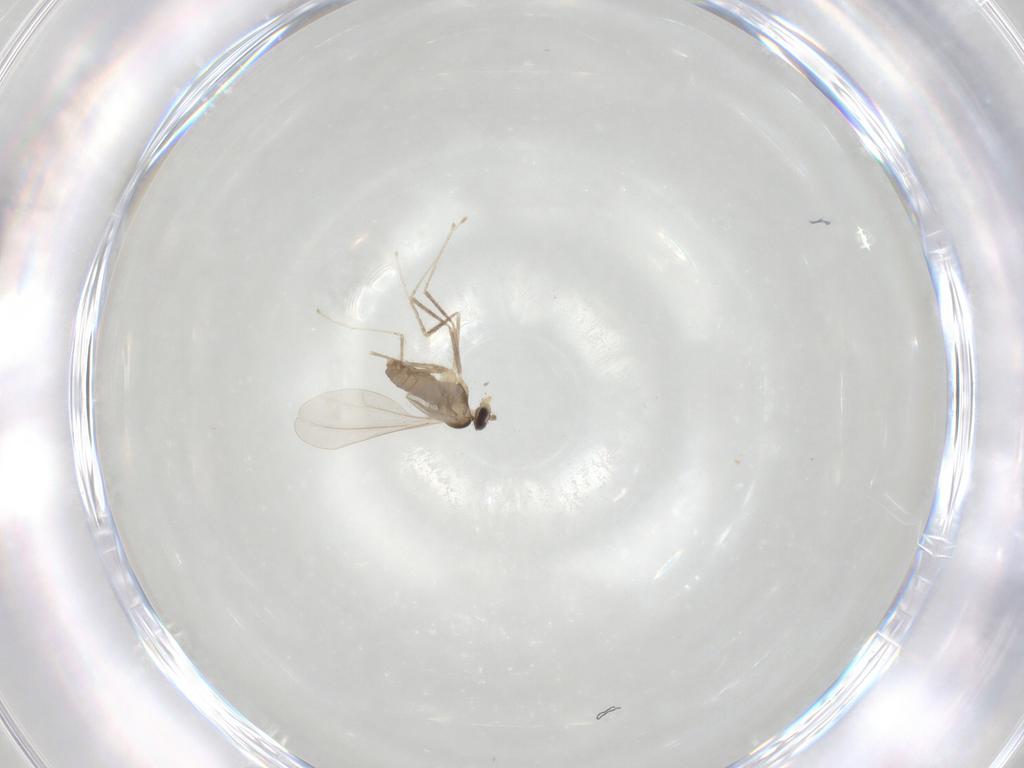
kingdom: Animalia
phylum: Arthropoda
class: Insecta
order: Diptera
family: Cecidomyiidae
